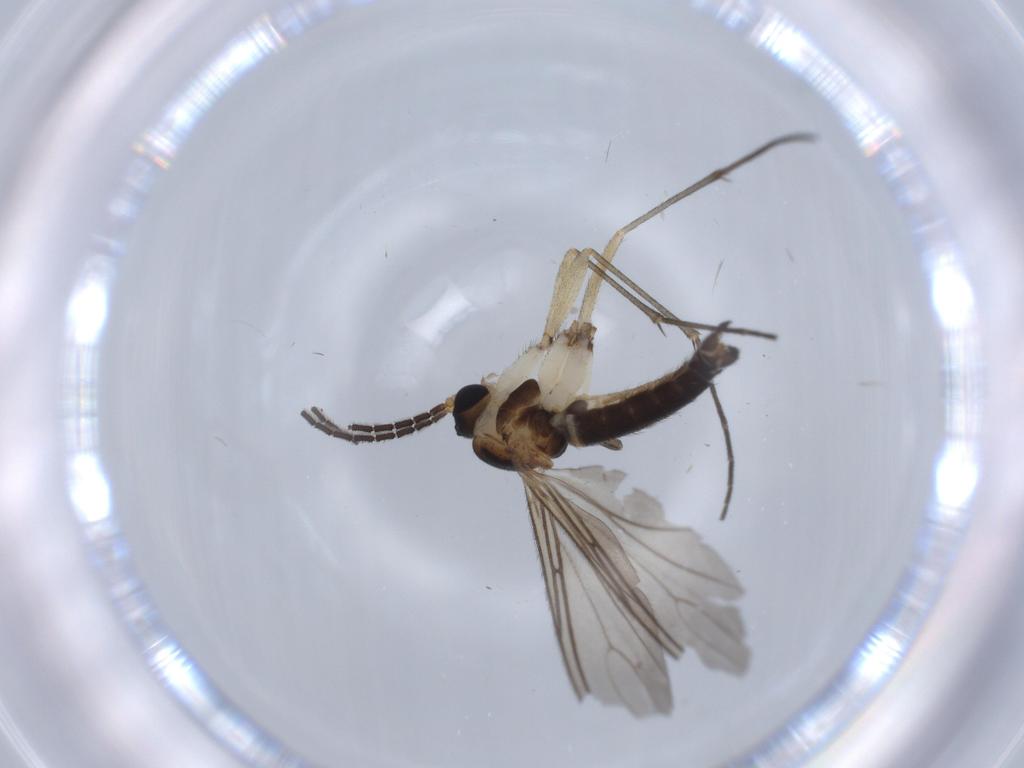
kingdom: Animalia
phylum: Arthropoda
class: Insecta
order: Diptera
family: Sciaridae
